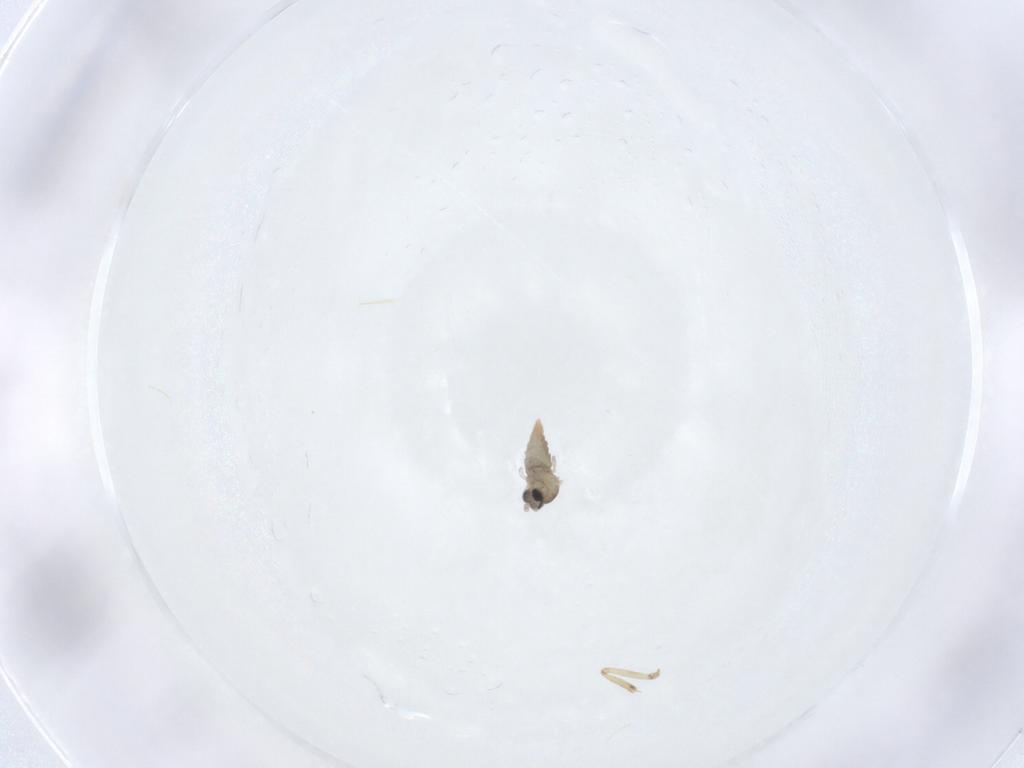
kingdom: Animalia
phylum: Arthropoda
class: Insecta
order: Diptera
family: Cecidomyiidae
